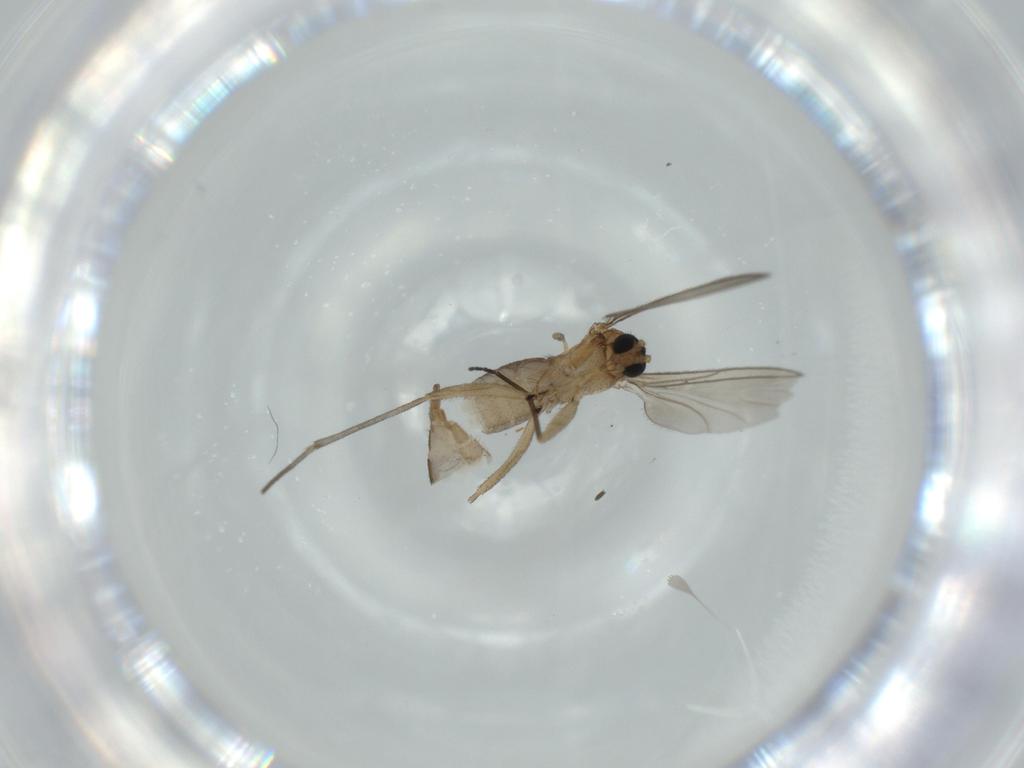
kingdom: Animalia
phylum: Arthropoda
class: Insecta
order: Diptera
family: Sciaridae
